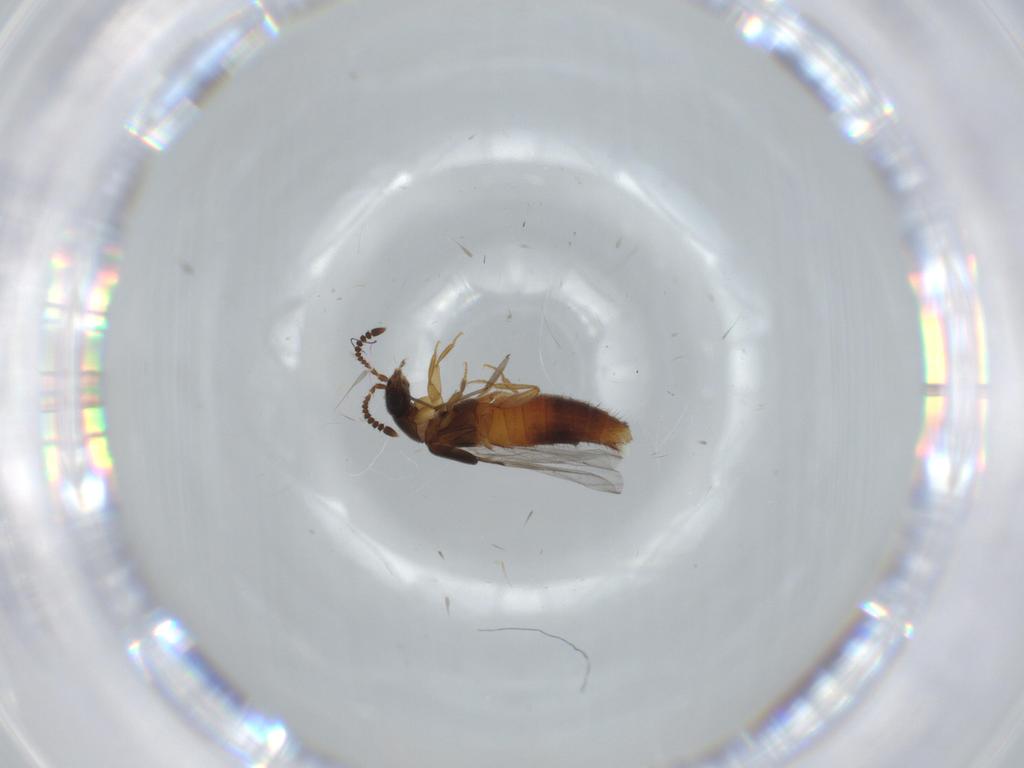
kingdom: Animalia
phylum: Arthropoda
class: Insecta
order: Coleoptera
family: Staphylinidae
